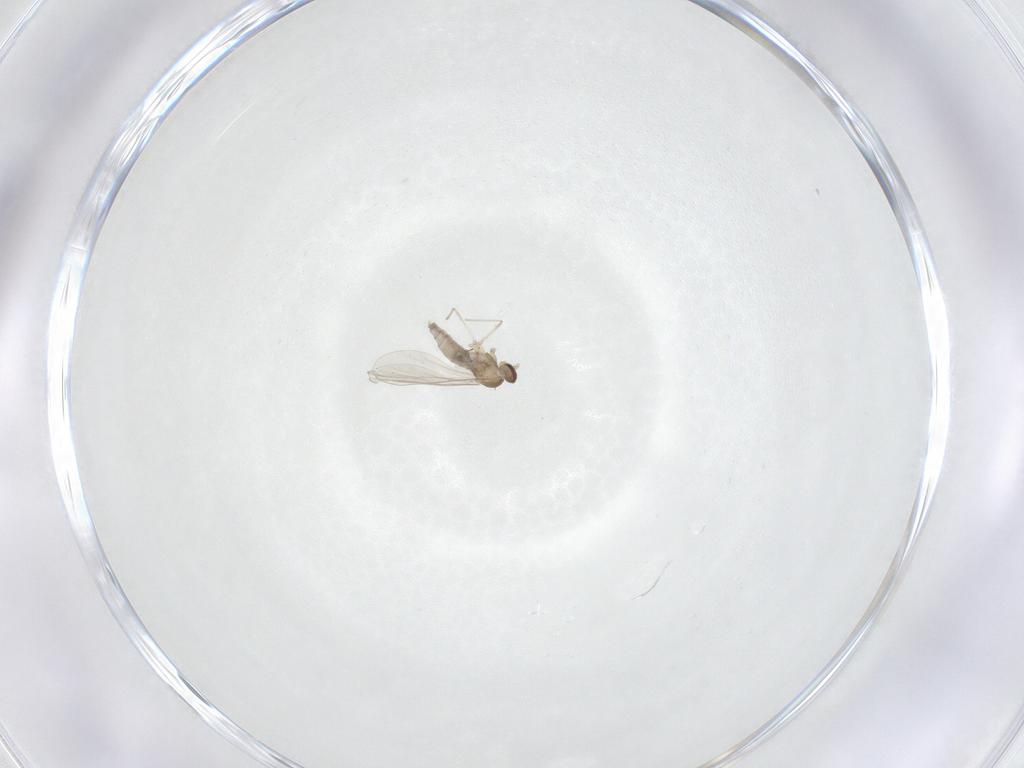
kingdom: Animalia
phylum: Arthropoda
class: Insecta
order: Diptera
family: Cecidomyiidae
